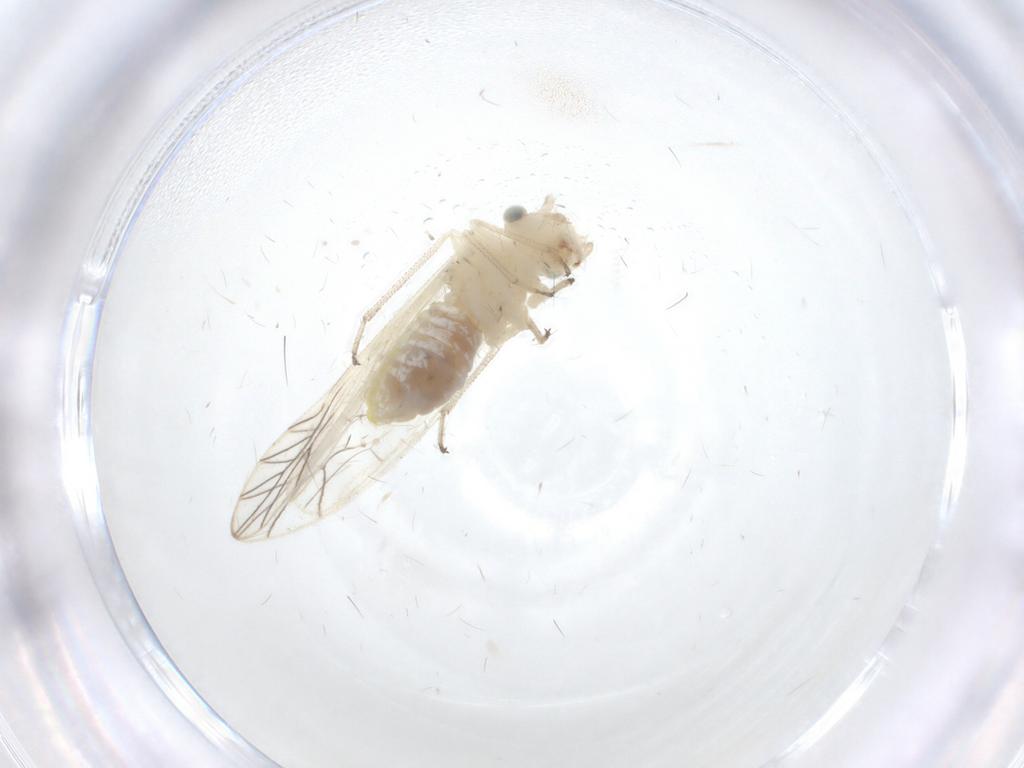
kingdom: Animalia
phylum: Arthropoda
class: Insecta
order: Psocodea
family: Elipsocidae
